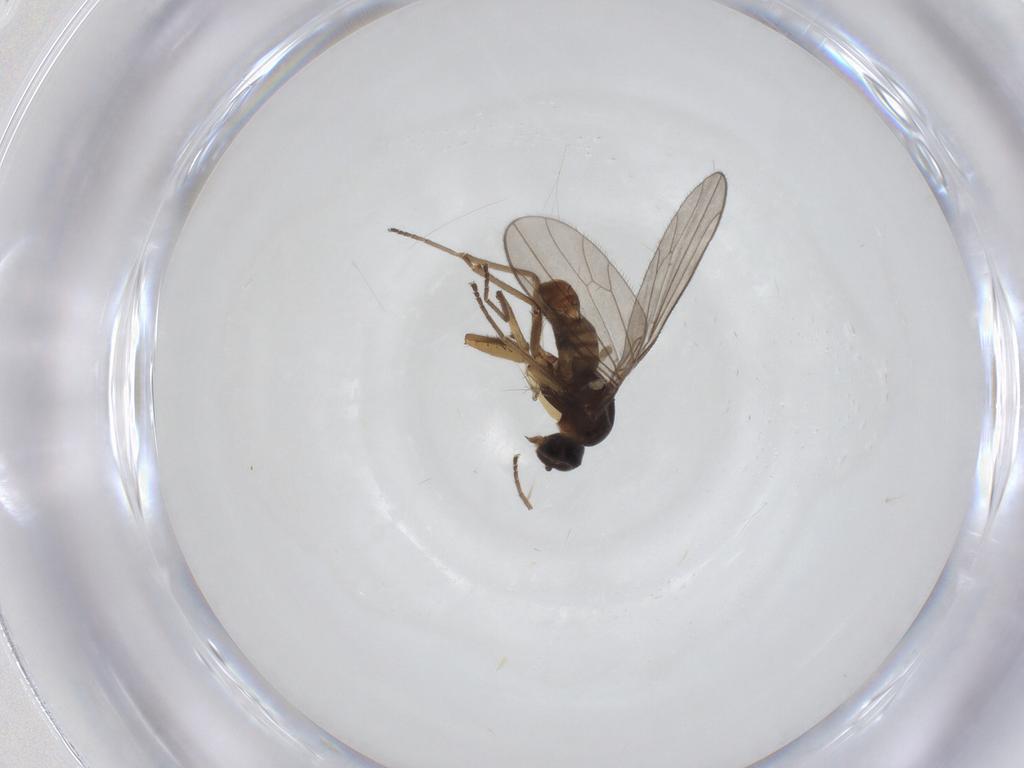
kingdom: Animalia
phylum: Arthropoda
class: Insecta
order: Diptera
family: Empididae
